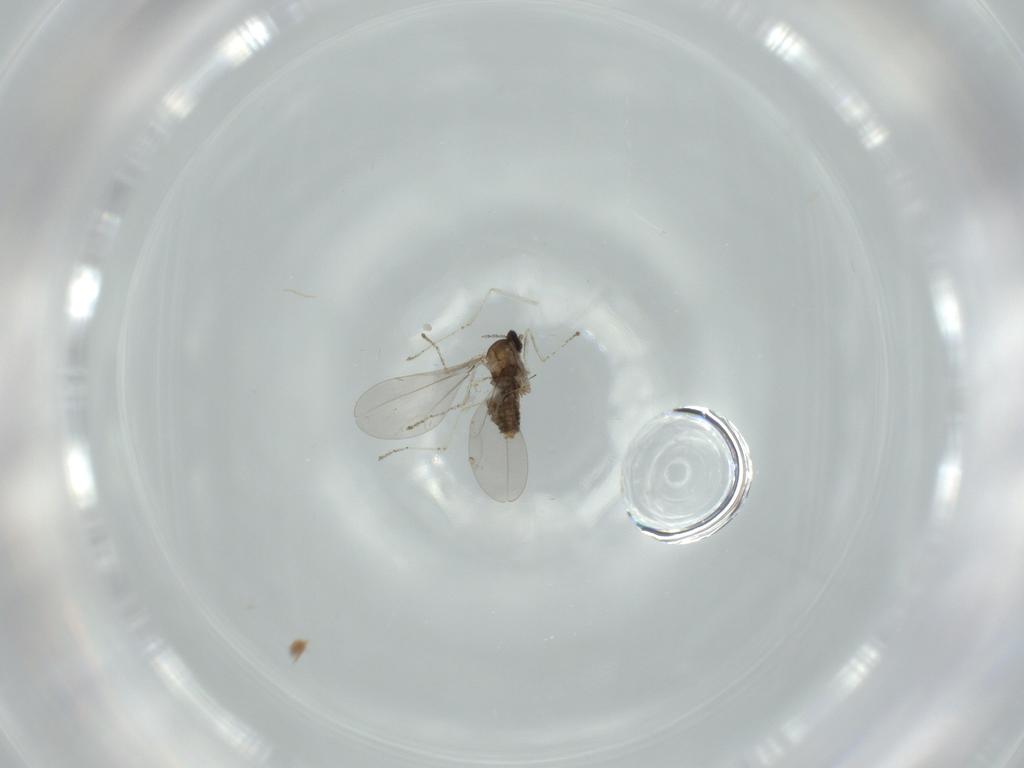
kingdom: Animalia
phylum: Arthropoda
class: Insecta
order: Diptera
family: Cecidomyiidae
